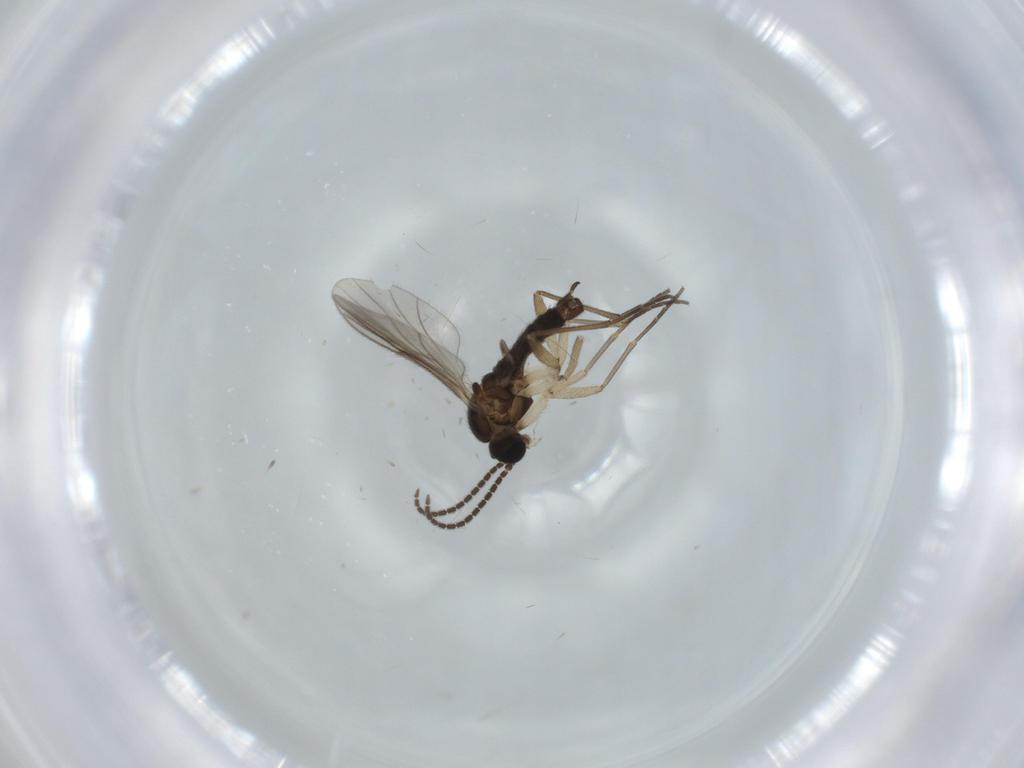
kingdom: Animalia
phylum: Arthropoda
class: Insecta
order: Diptera
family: Sciaridae
